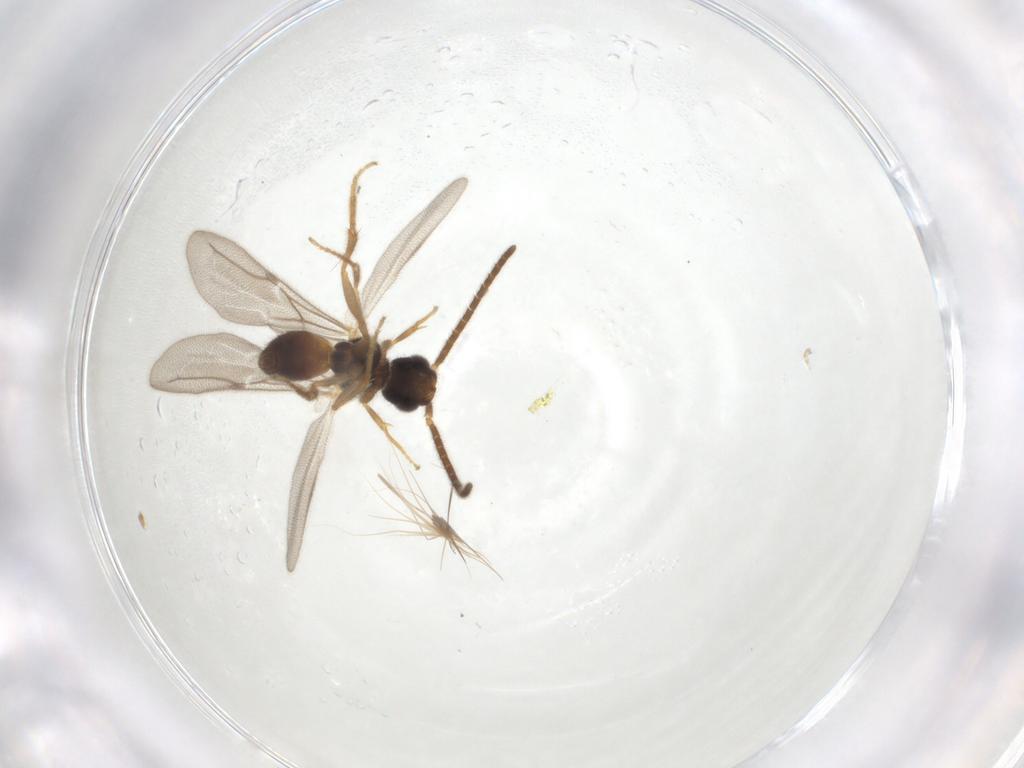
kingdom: Animalia
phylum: Arthropoda
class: Insecta
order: Hymenoptera
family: Bethylidae
